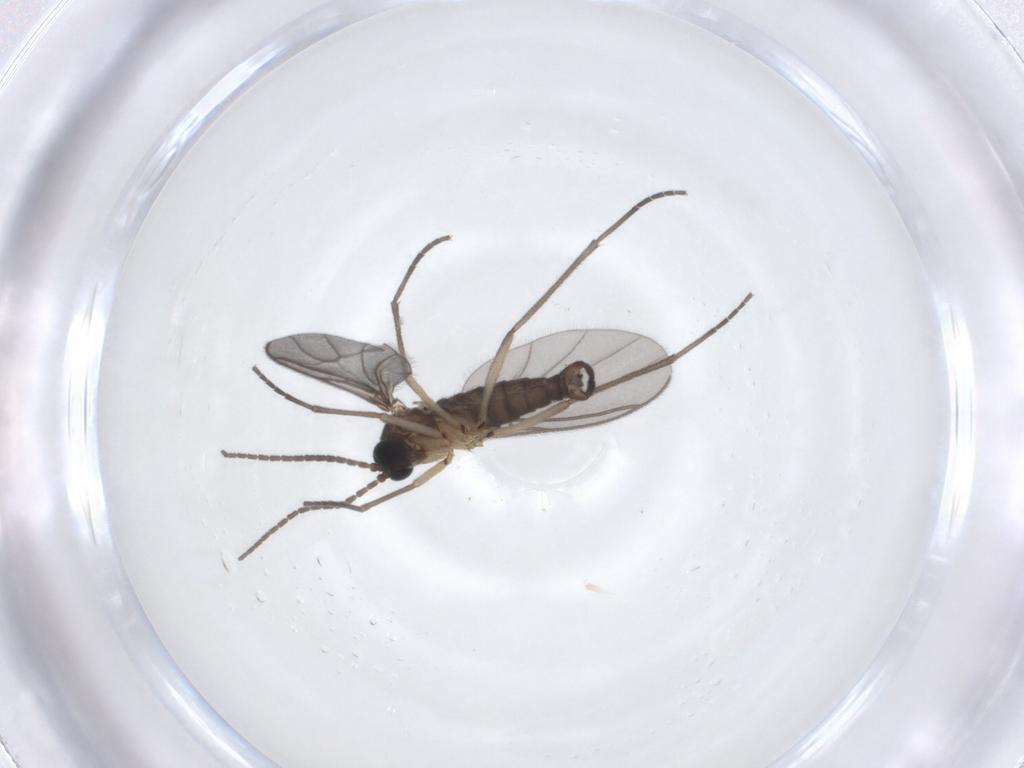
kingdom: Animalia
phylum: Arthropoda
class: Insecta
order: Diptera
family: Sciaridae
